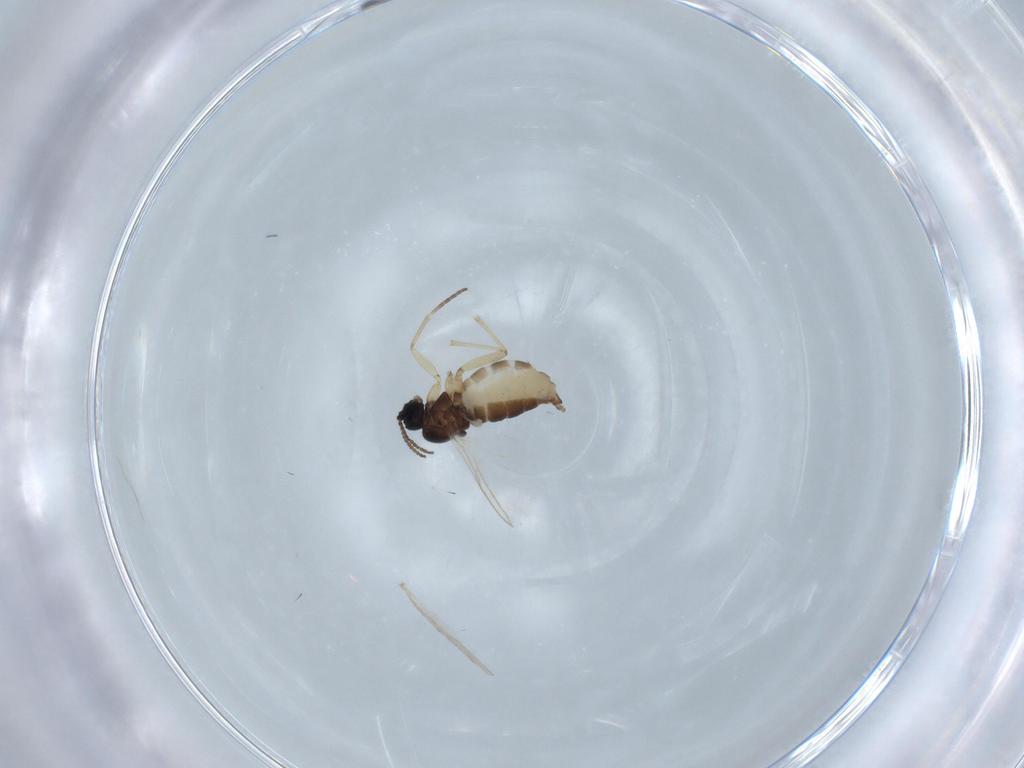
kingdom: Animalia
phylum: Arthropoda
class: Insecta
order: Diptera
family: Sciaridae
